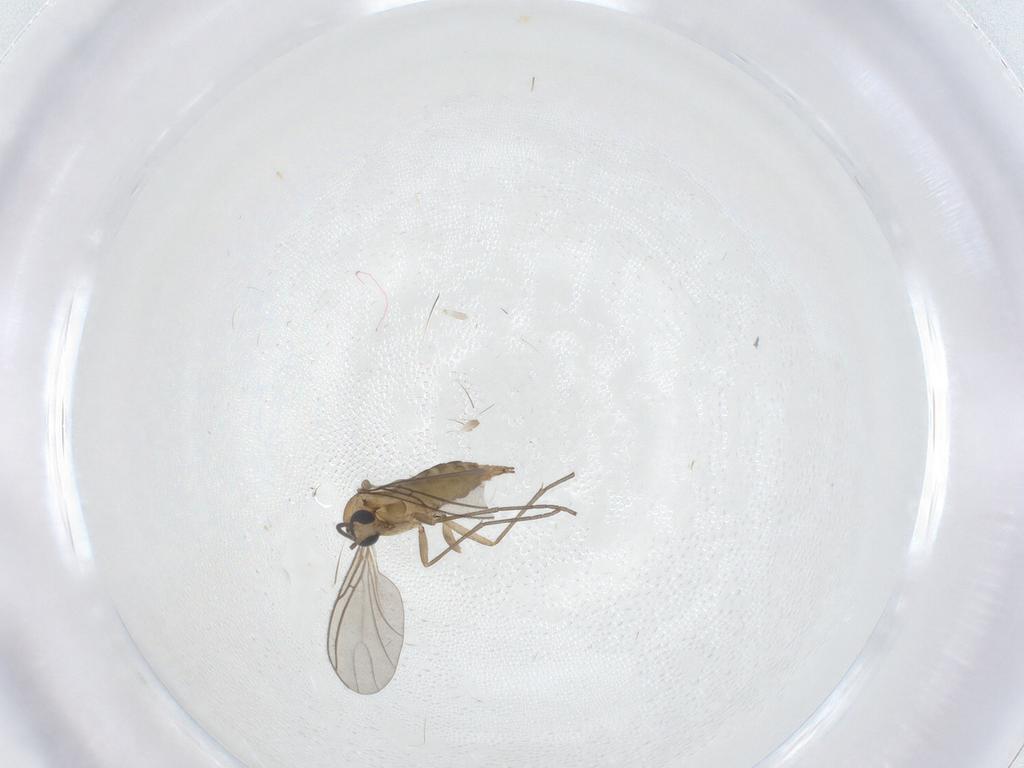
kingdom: Animalia
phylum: Arthropoda
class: Insecta
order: Diptera
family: Sciaridae
